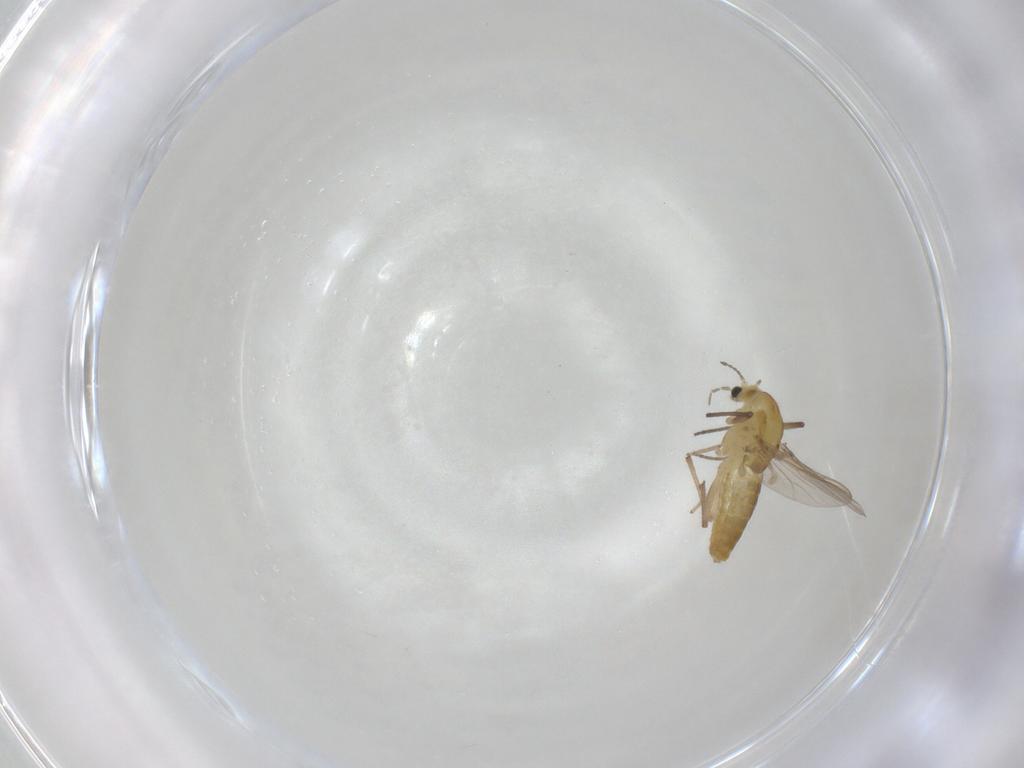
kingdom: Animalia
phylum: Arthropoda
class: Insecta
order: Diptera
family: Chironomidae
